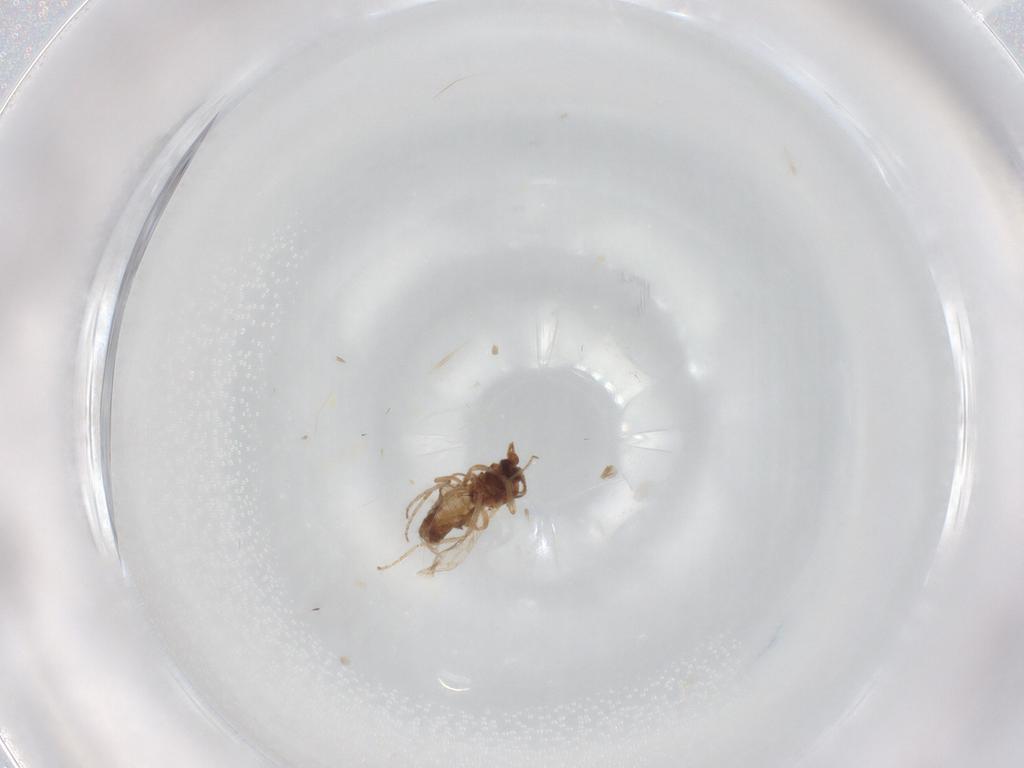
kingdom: Animalia
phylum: Arthropoda
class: Insecta
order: Diptera
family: Ceratopogonidae
